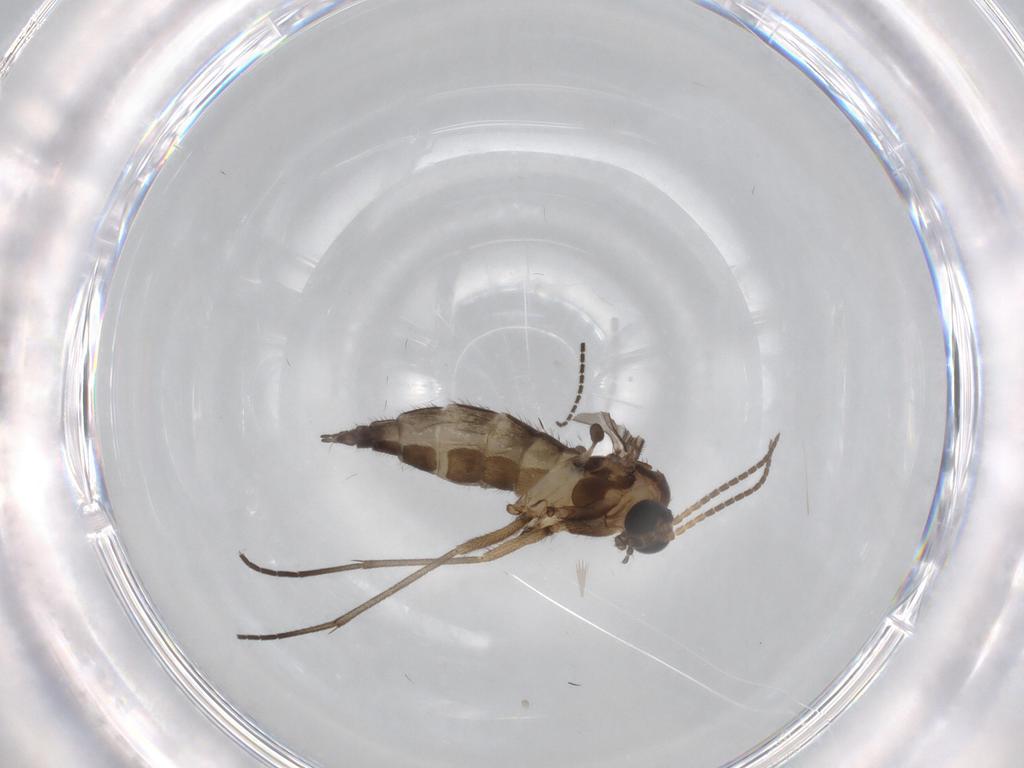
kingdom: Animalia
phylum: Arthropoda
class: Insecta
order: Diptera
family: Sciaridae
